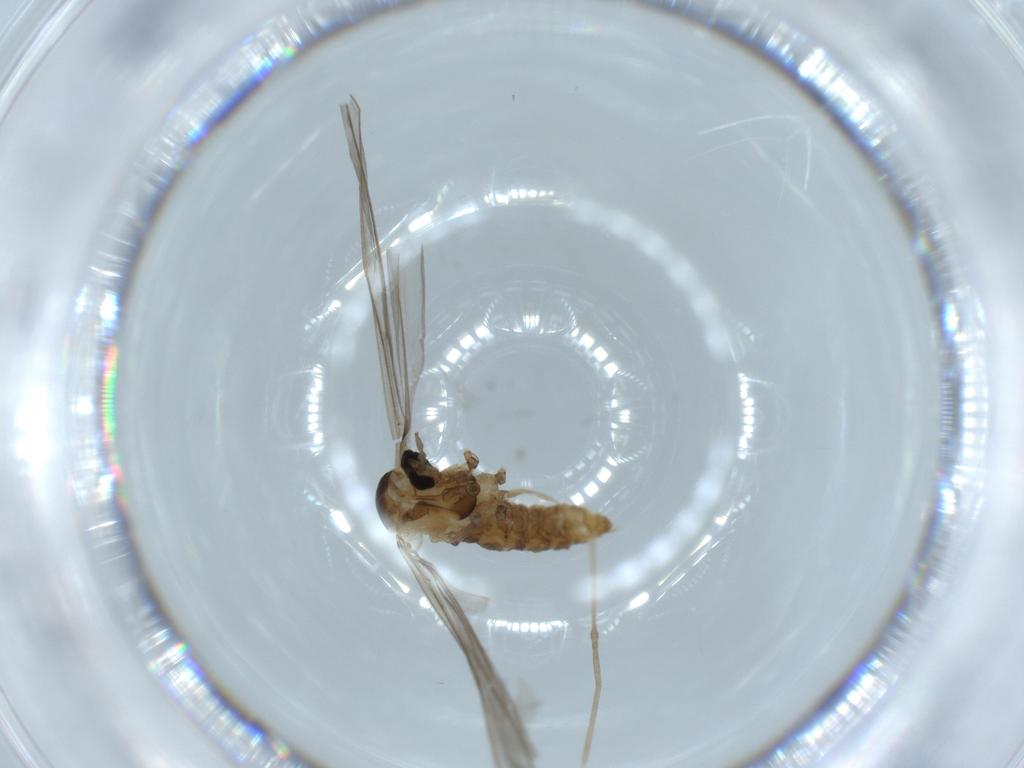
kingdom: Animalia
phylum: Arthropoda
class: Insecta
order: Diptera
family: Cecidomyiidae
